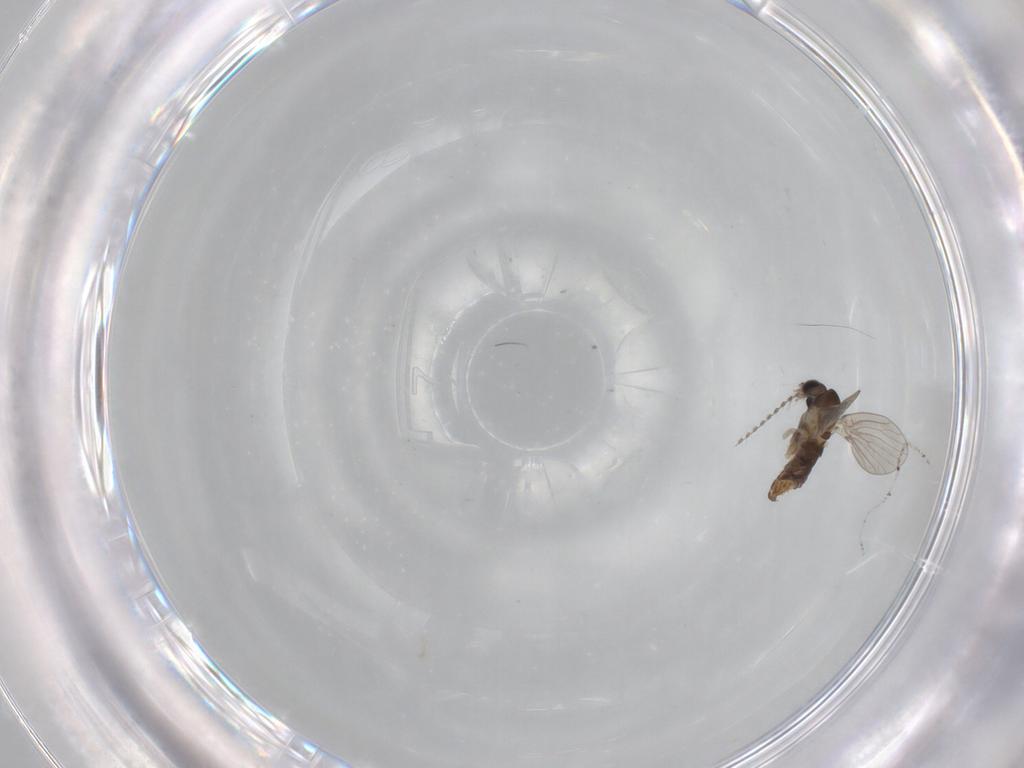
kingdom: Animalia
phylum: Arthropoda
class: Insecta
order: Diptera
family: Psychodidae
